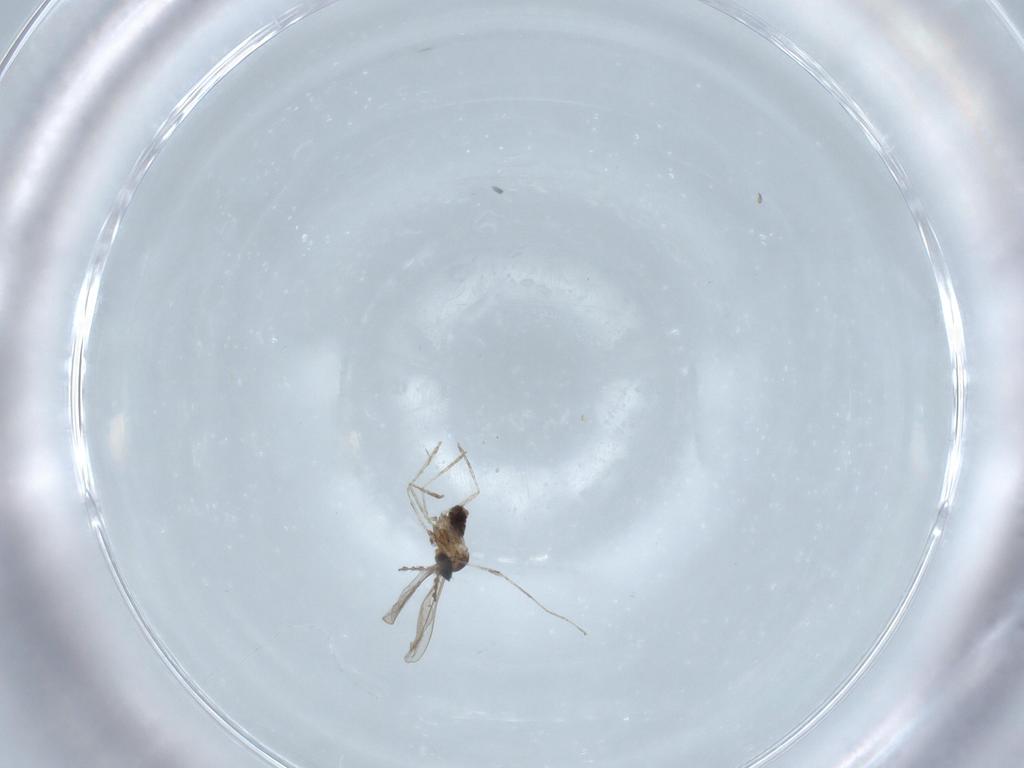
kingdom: Animalia
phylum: Arthropoda
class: Insecta
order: Diptera
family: Cecidomyiidae
